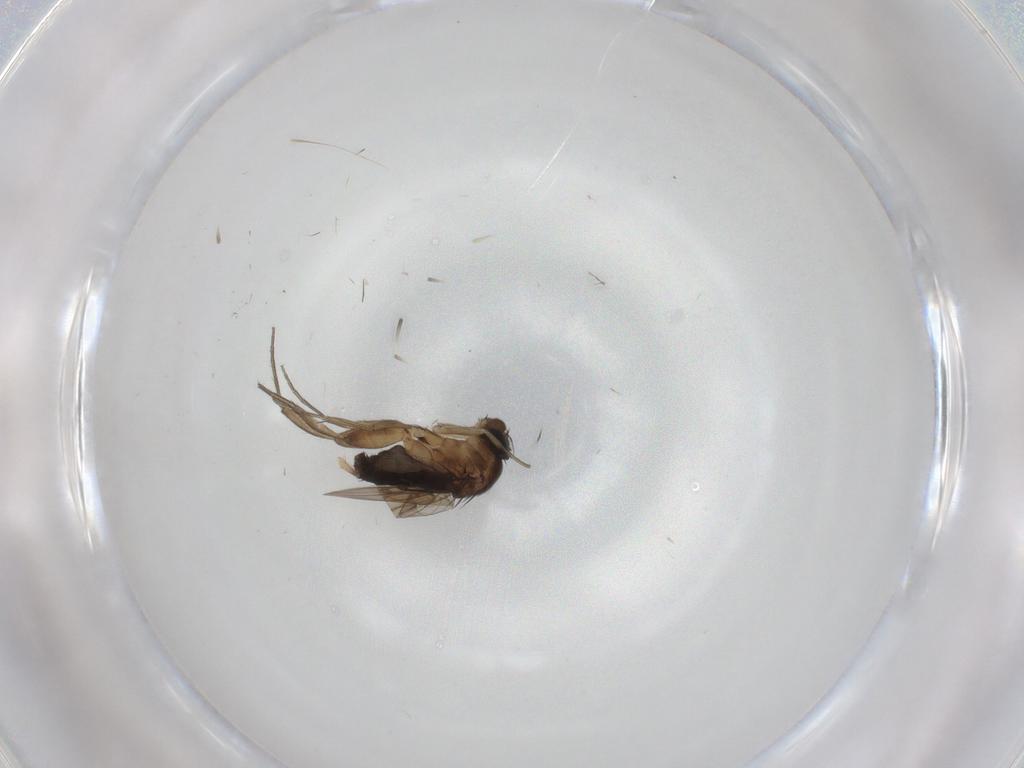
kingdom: Animalia
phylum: Arthropoda
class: Insecta
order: Diptera
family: Phoridae
